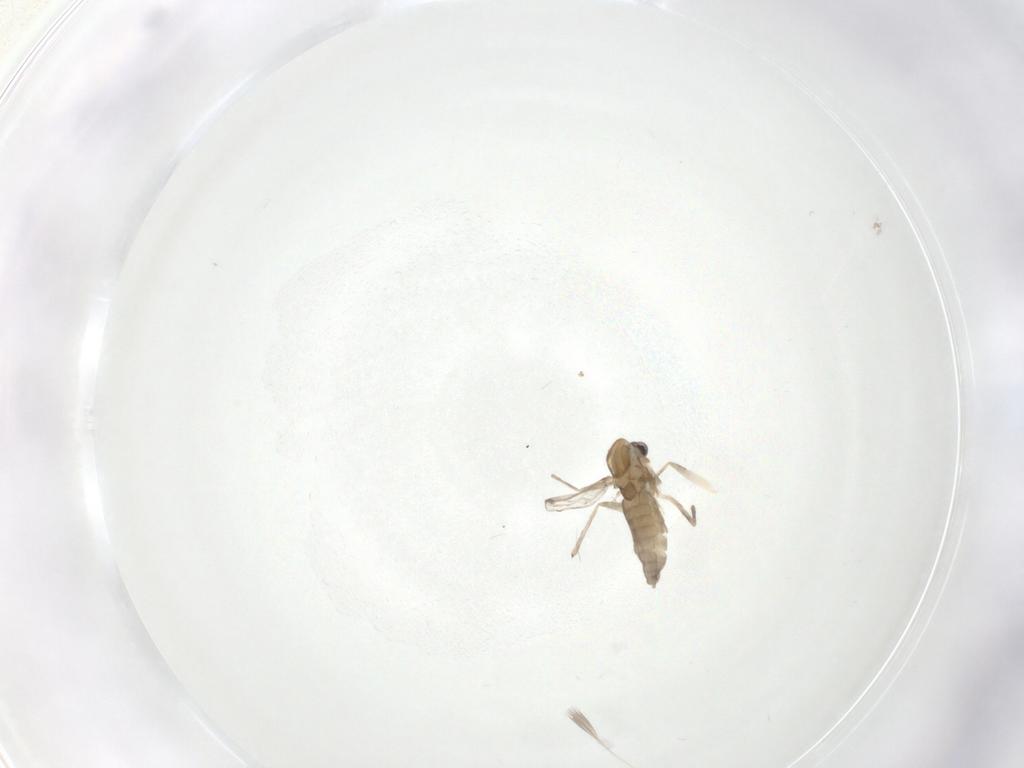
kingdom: Animalia
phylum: Arthropoda
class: Insecta
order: Diptera
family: Chironomidae
